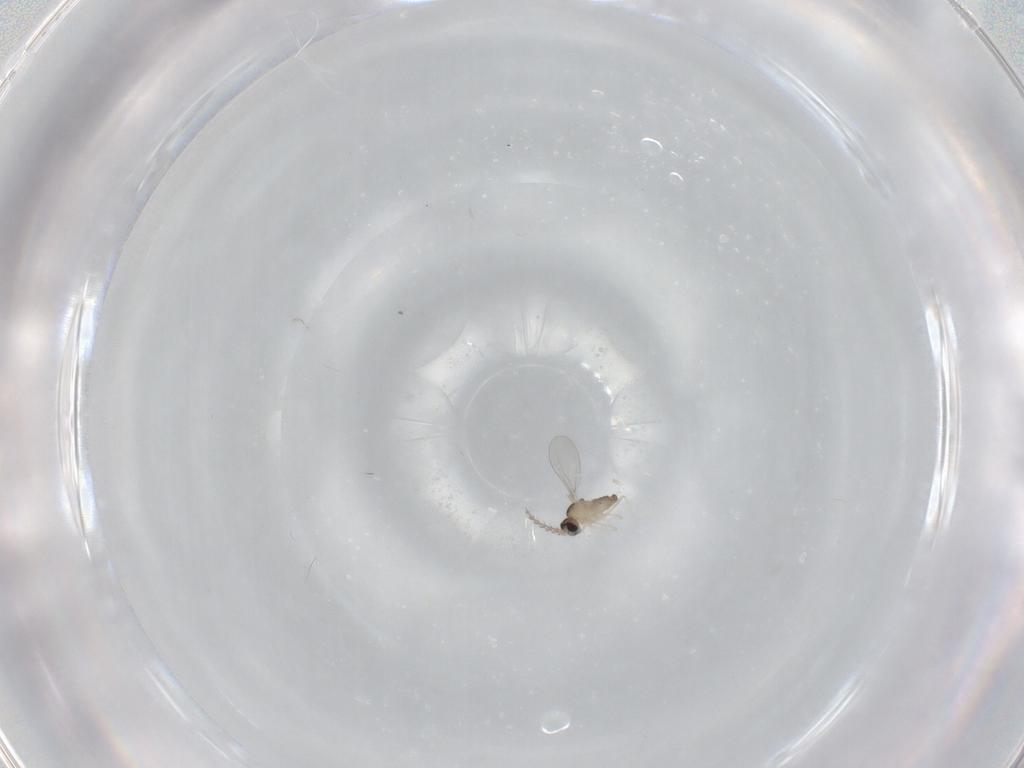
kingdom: Animalia
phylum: Arthropoda
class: Insecta
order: Diptera
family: Cecidomyiidae
